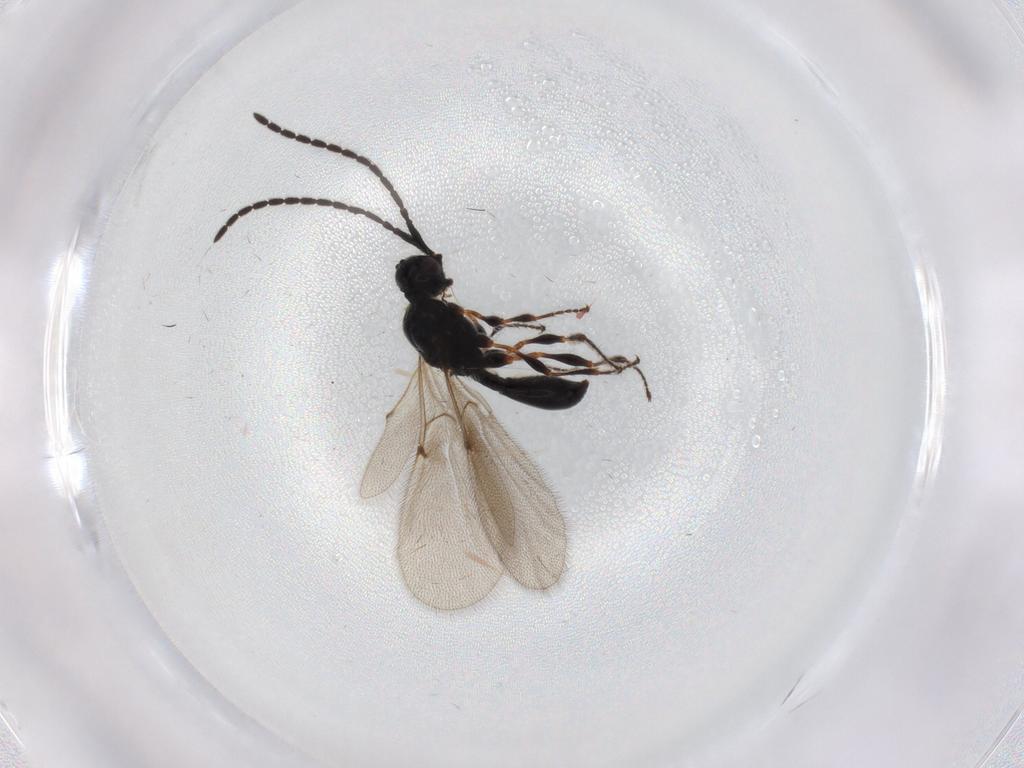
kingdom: Animalia
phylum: Arthropoda
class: Insecta
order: Hymenoptera
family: Diapriidae
